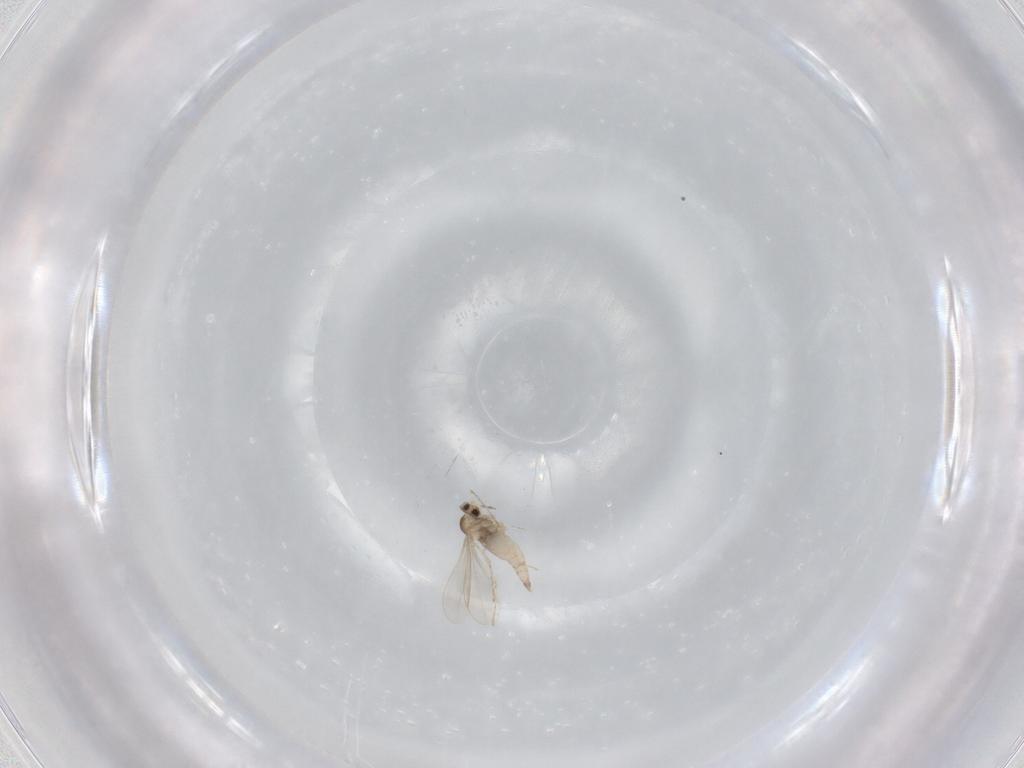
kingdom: Animalia
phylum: Arthropoda
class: Insecta
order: Diptera
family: Cecidomyiidae
